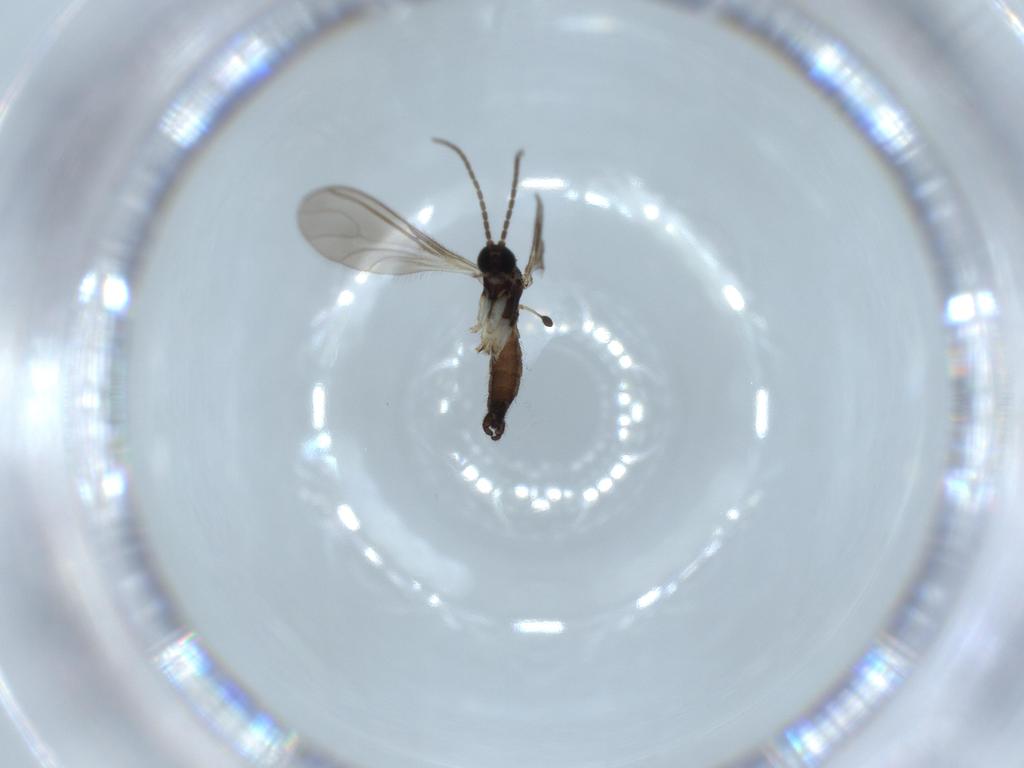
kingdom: Animalia
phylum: Arthropoda
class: Insecta
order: Diptera
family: Sciaridae
